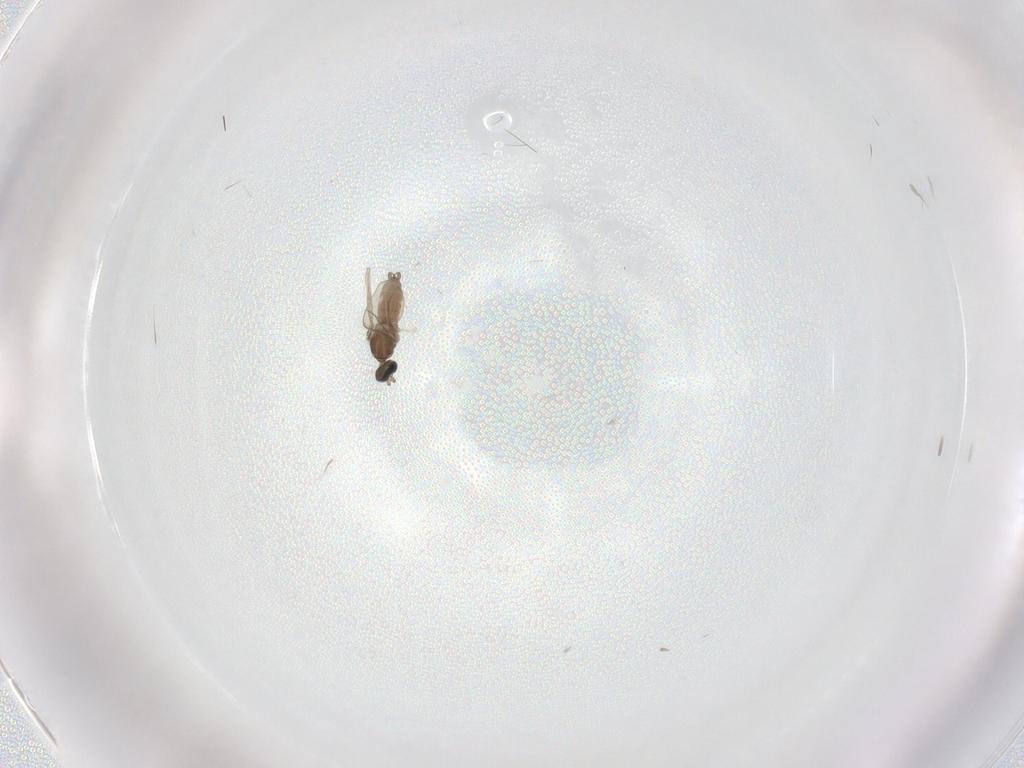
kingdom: Animalia
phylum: Arthropoda
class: Insecta
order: Diptera
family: Cecidomyiidae
